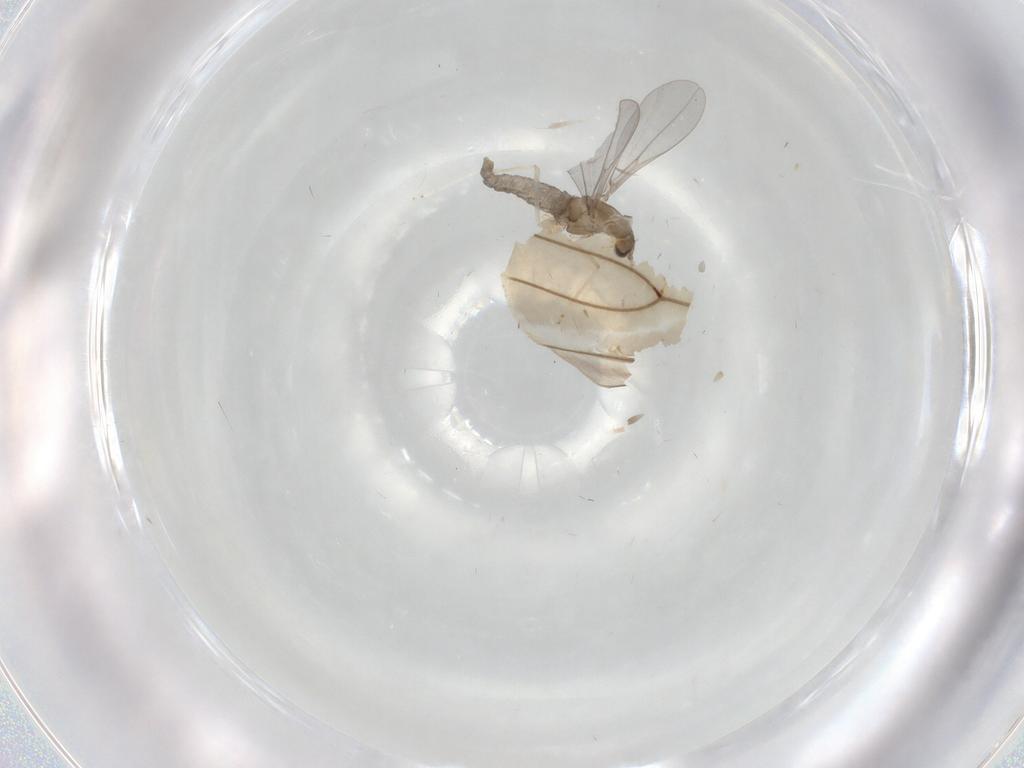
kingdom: Animalia
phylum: Arthropoda
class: Insecta
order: Diptera
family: Cecidomyiidae
